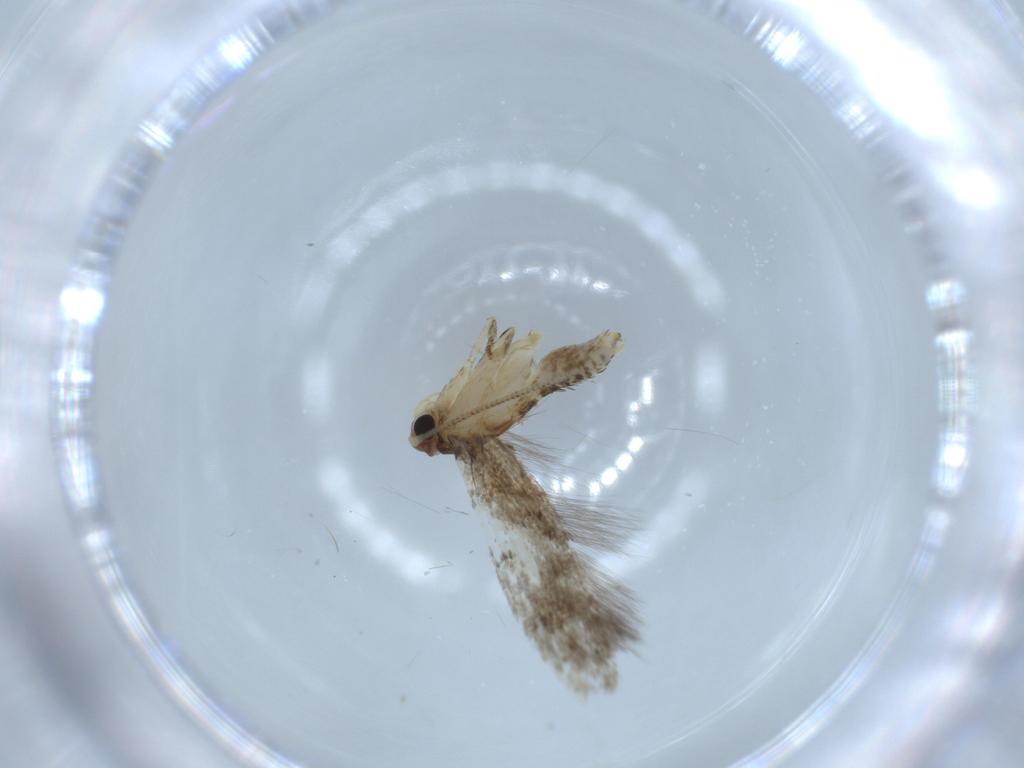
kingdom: Animalia
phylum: Arthropoda
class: Insecta
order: Lepidoptera
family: Tineidae
